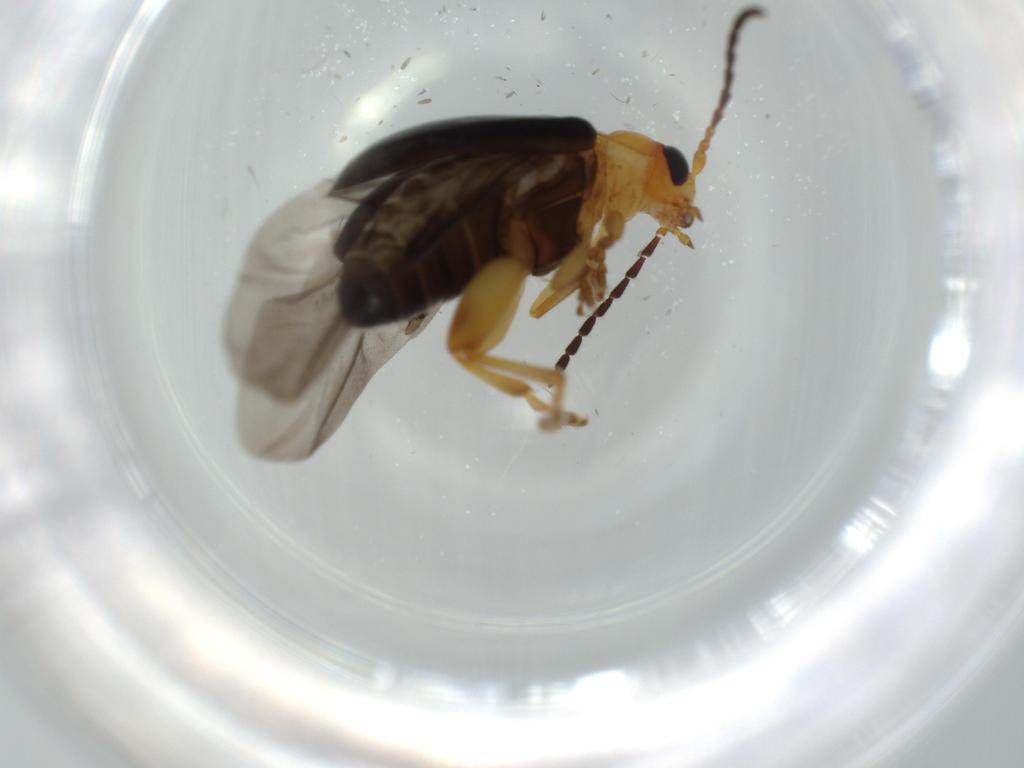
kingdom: Animalia
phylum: Arthropoda
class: Insecta
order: Coleoptera
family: Chrysomelidae
